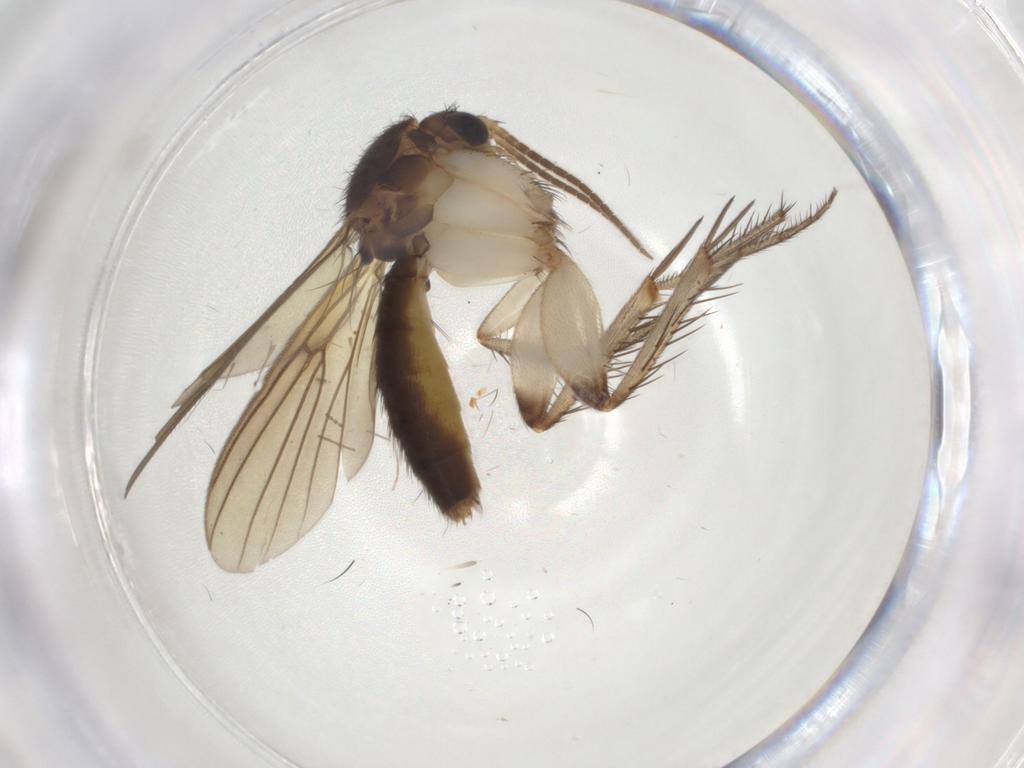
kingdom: Animalia
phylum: Arthropoda
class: Insecta
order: Diptera
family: Psychodidae
